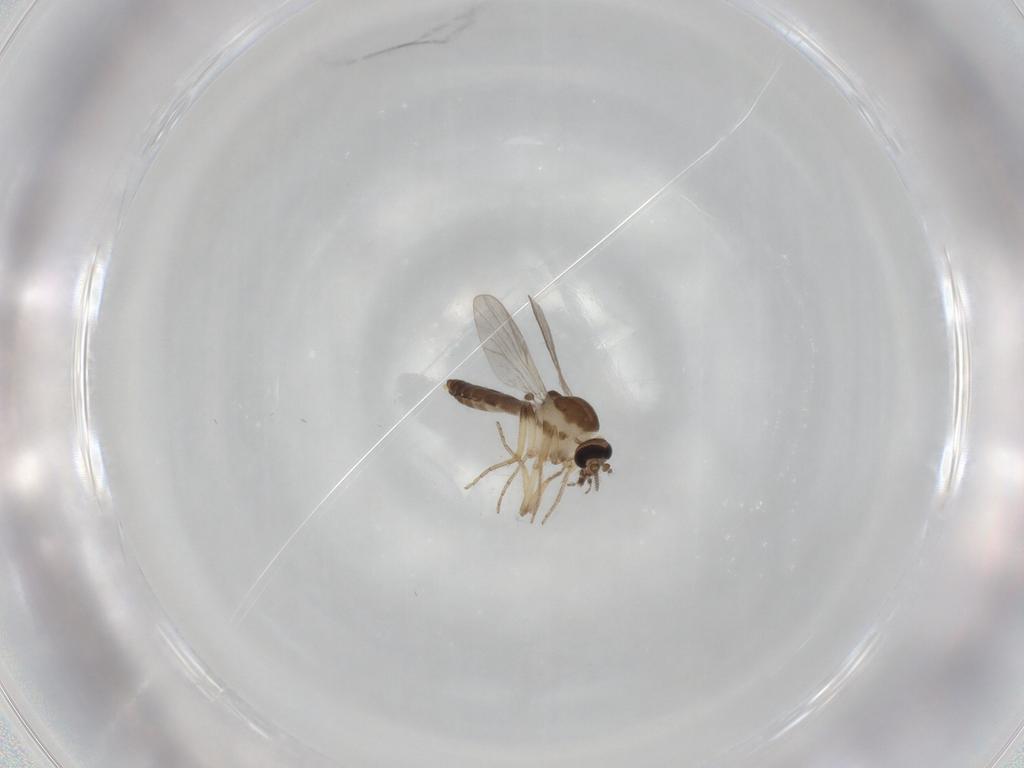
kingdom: Animalia
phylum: Arthropoda
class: Insecta
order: Diptera
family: Ceratopogonidae
